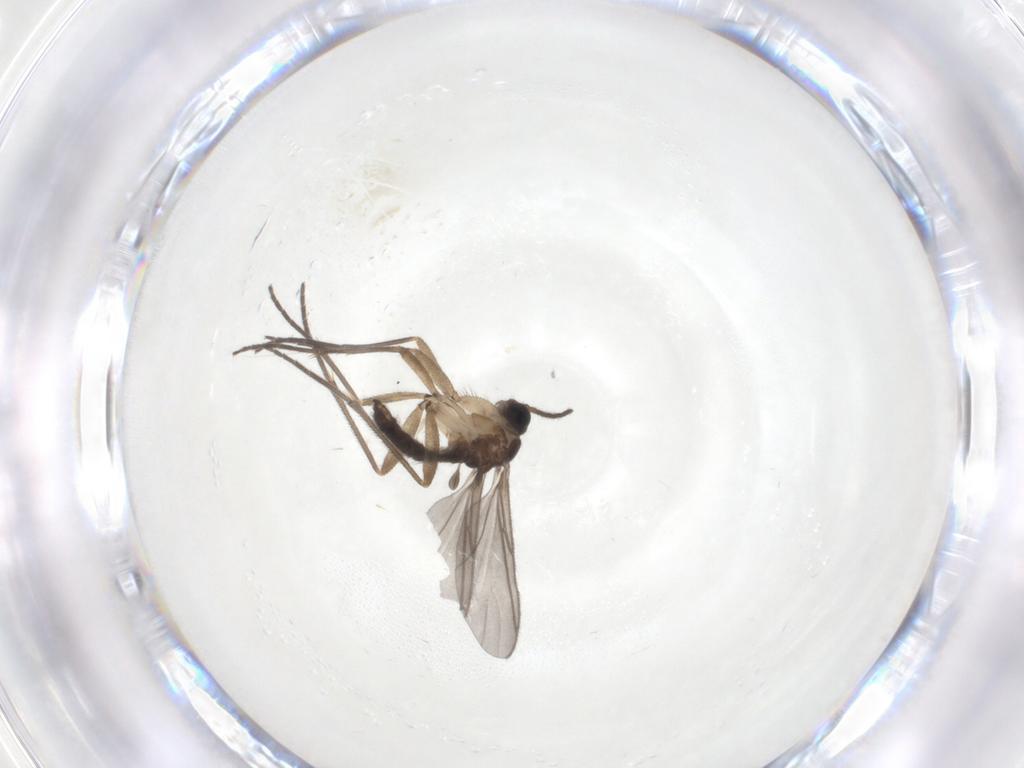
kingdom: Animalia
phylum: Arthropoda
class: Insecta
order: Diptera
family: Sciaridae
